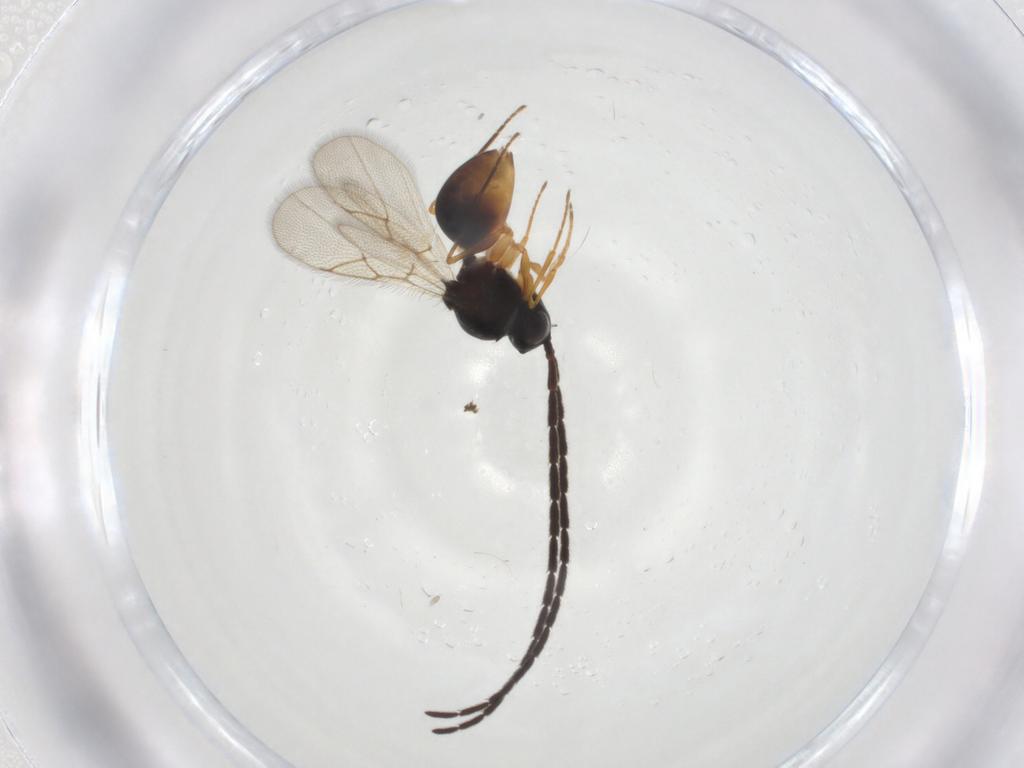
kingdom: Animalia
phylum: Arthropoda
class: Insecta
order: Hymenoptera
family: Figitidae
